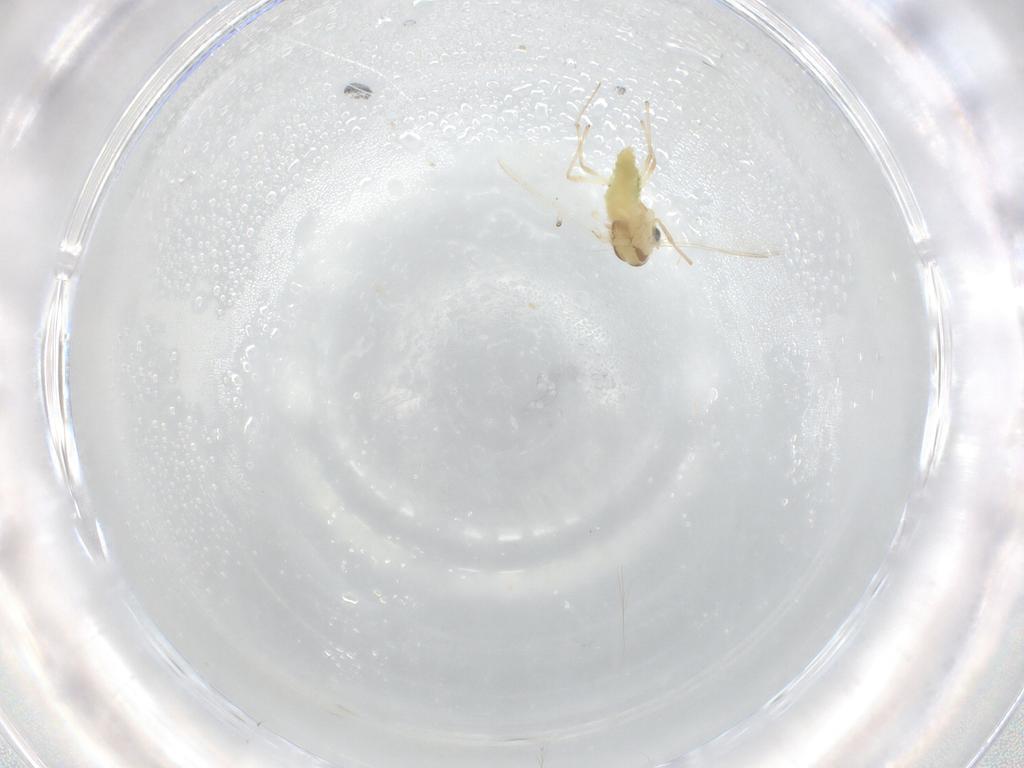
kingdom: Animalia
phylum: Arthropoda
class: Insecta
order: Diptera
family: Chironomidae
